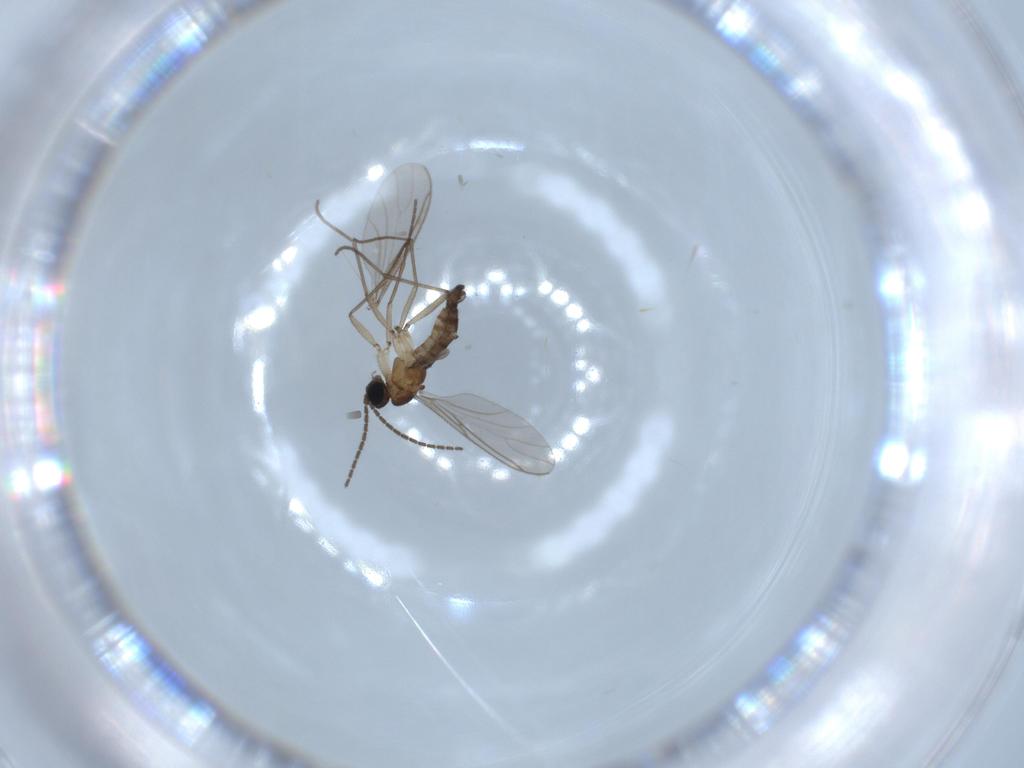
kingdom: Animalia
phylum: Arthropoda
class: Insecta
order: Diptera
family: Sciaridae
